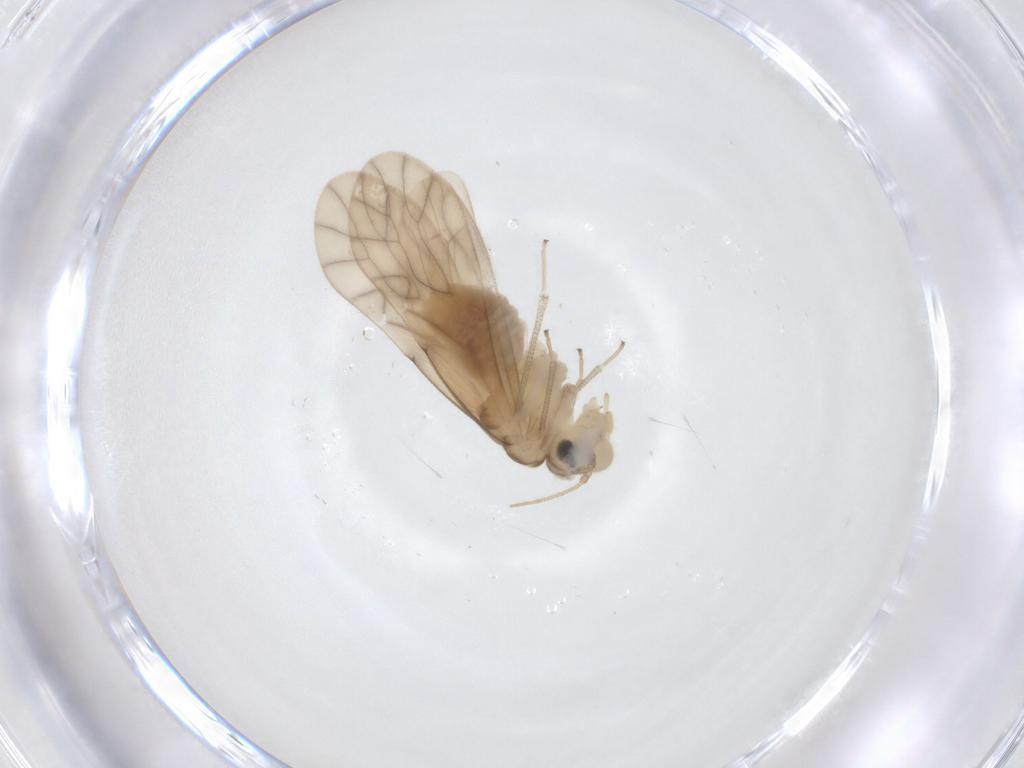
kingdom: Animalia
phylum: Arthropoda
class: Insecta
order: Psocodea
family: Caeciliusidae
